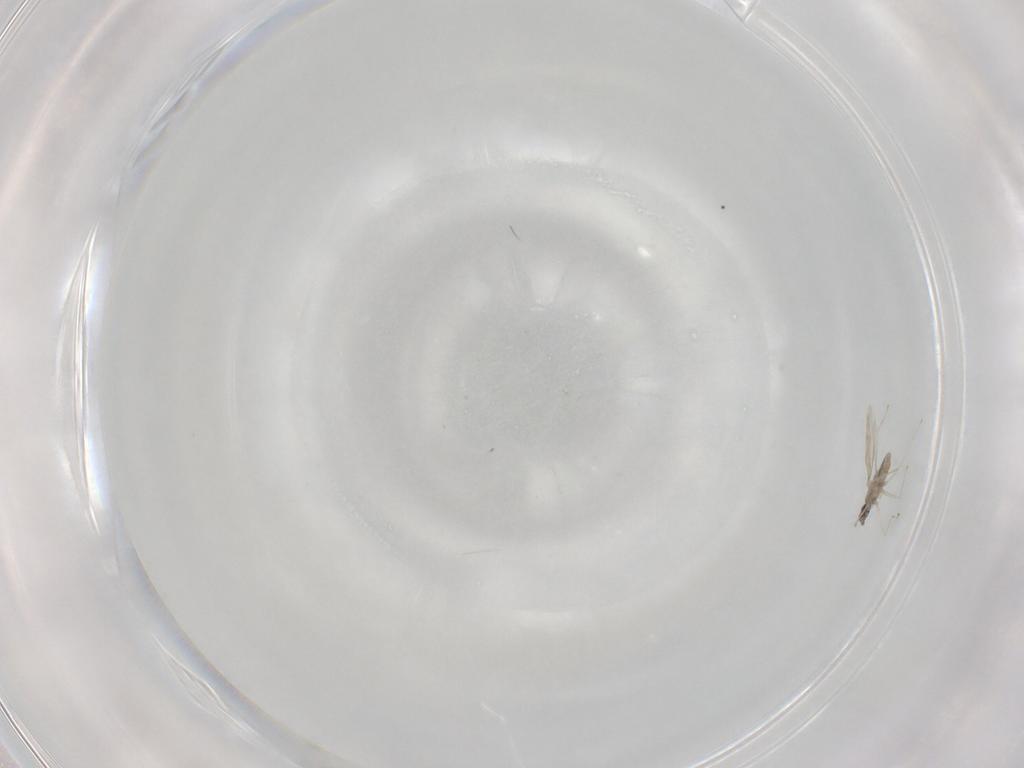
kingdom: Animalia
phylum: Arthropoda
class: Insecta
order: Diptera
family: Cecidomyiidae
